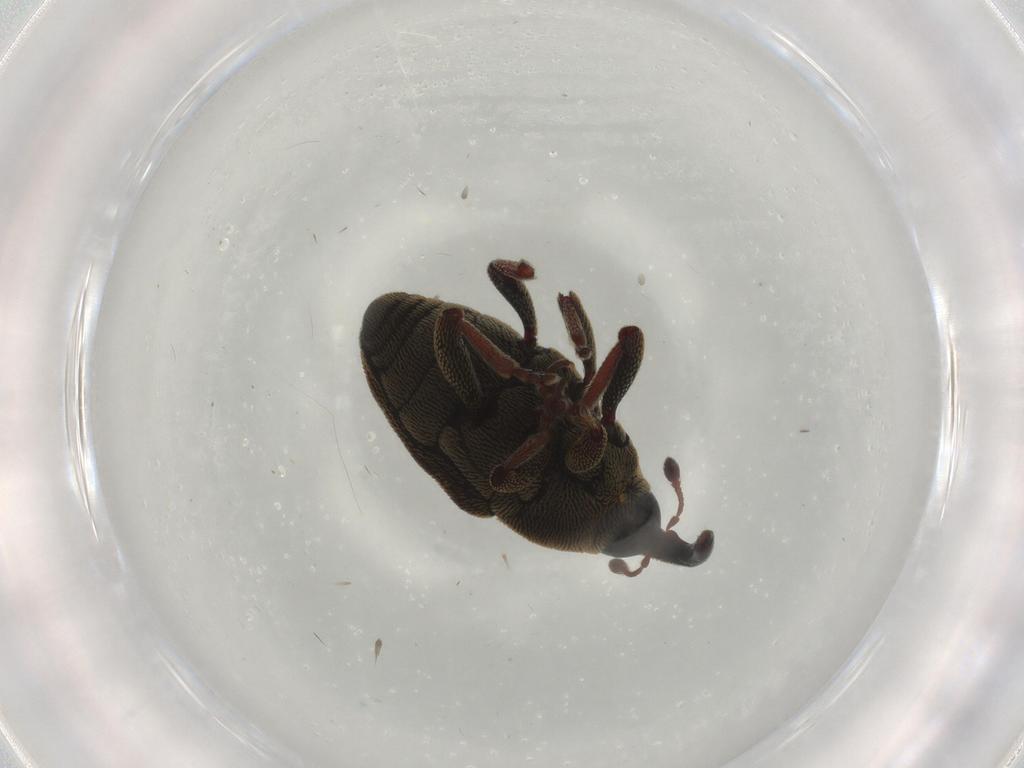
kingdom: Animalia
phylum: Arthropoda
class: Insecta
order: Coleoptera
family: Curculionidae
